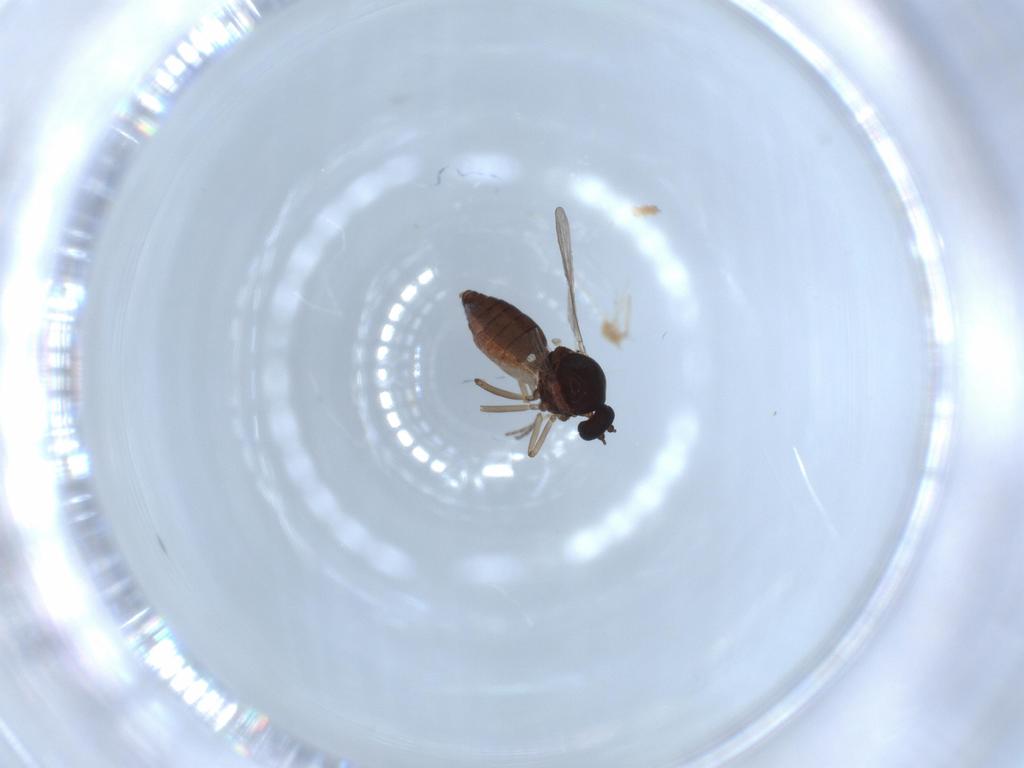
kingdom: Animalia
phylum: Arthropoda
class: Insecta
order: Diptera
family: Ceratopogonidae
